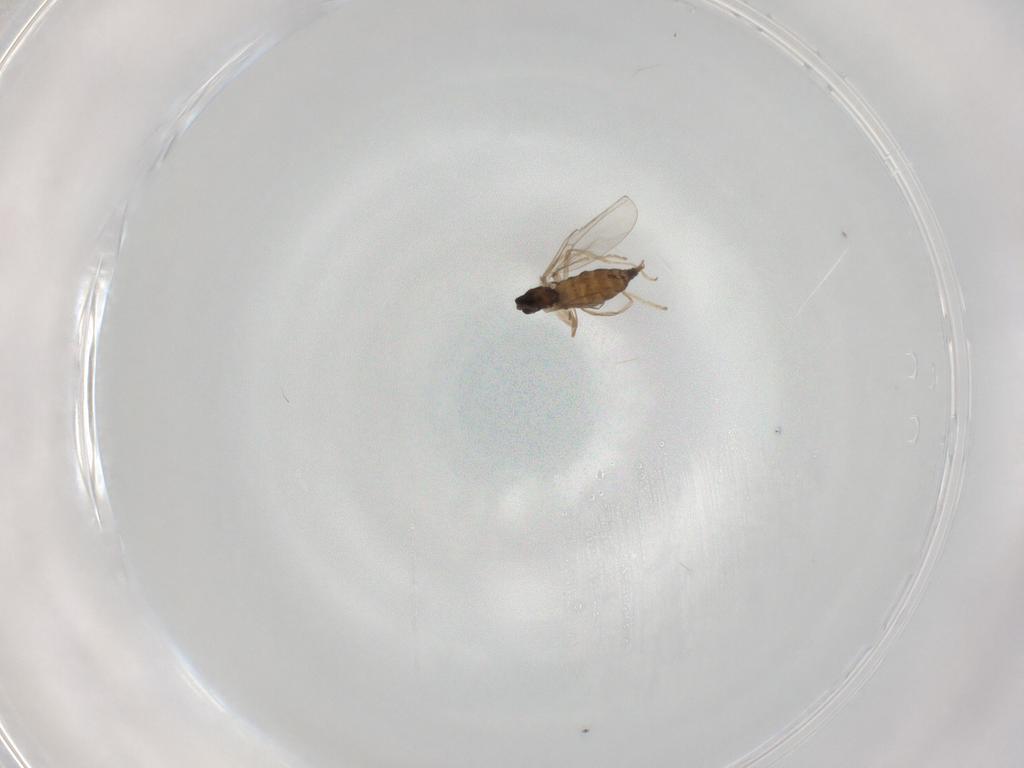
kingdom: Animalia
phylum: Arthropoda
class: Insecta
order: Diptera
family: Cecidomyiidae
